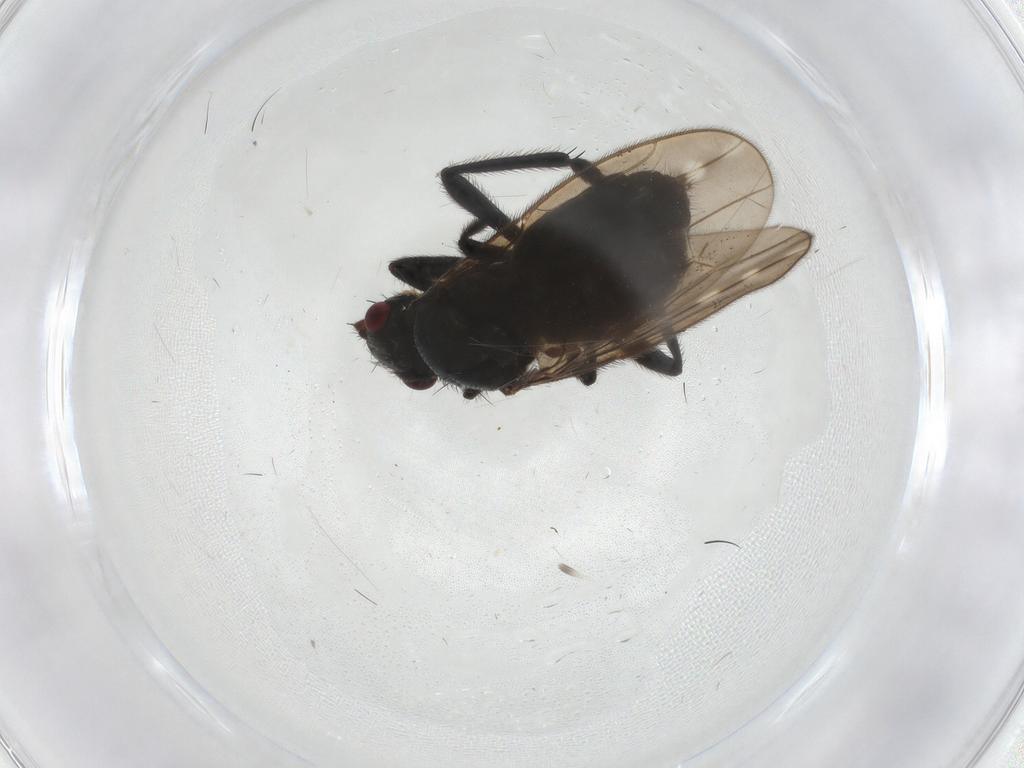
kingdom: Animalia
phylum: Arthropoda
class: Insecta
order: Diptera
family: Sphaeroceridae
